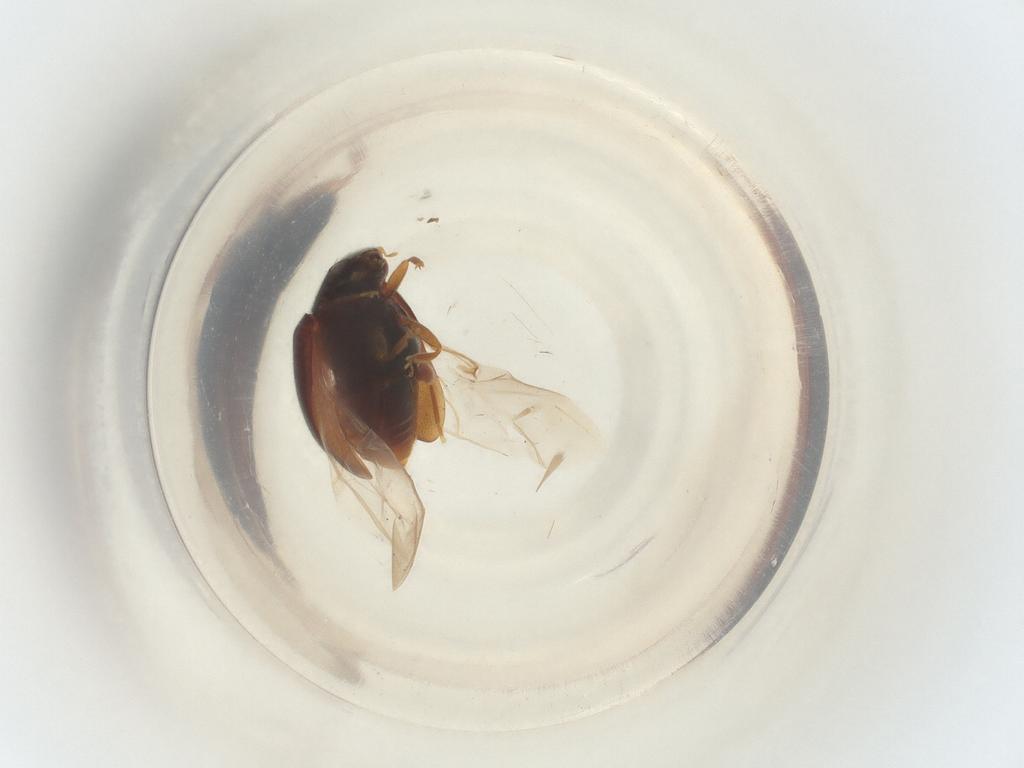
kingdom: Animalia
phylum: Arthropoda
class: Insecta
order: Coleoptera
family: Coccinellidae
